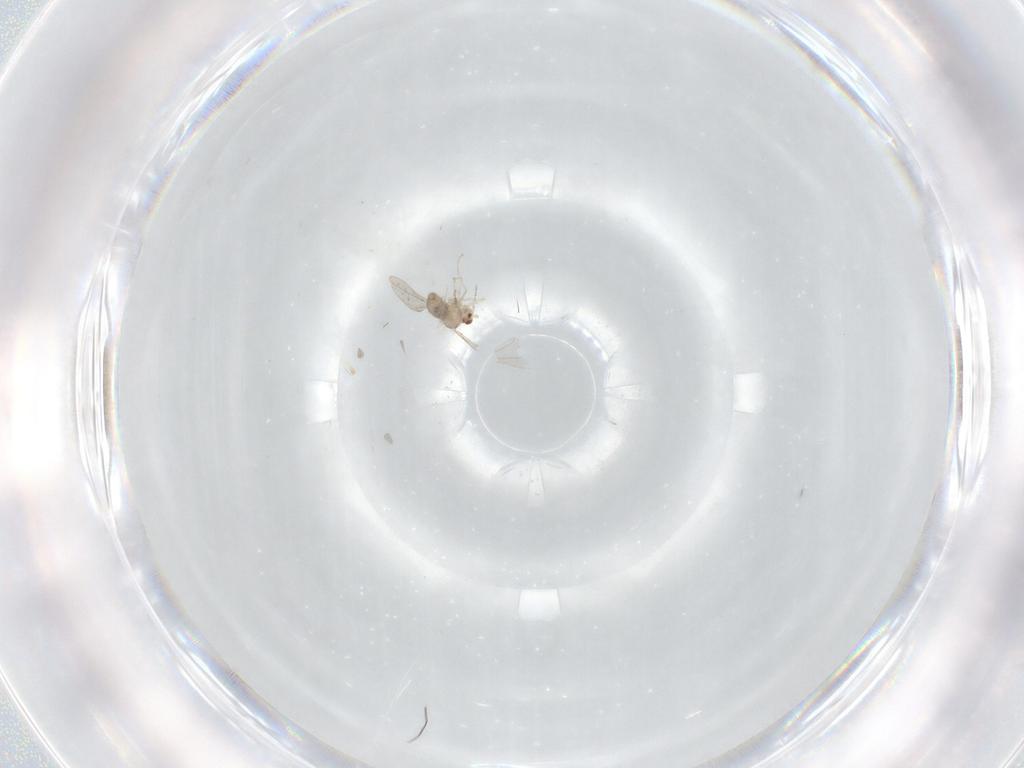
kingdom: Animalia
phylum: Arthropoda
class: Insecta
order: Diptera
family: Cecidomyiidae
